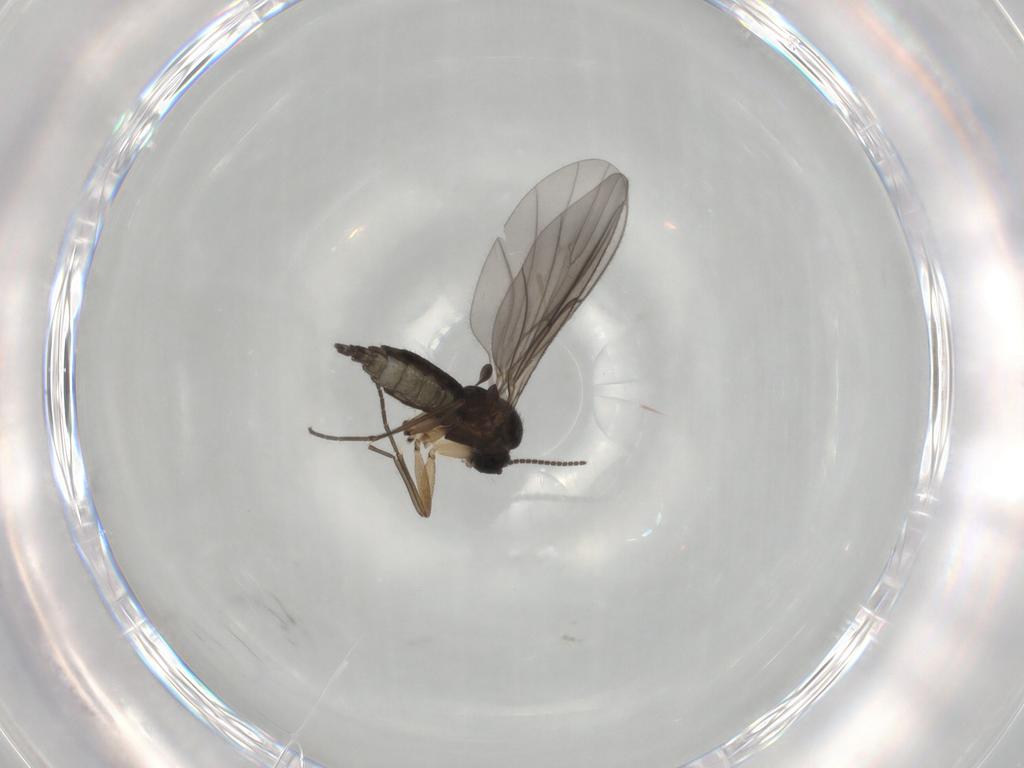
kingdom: Animalia
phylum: Arthropoda
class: Insecta
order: Diptera
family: Sciaridae
